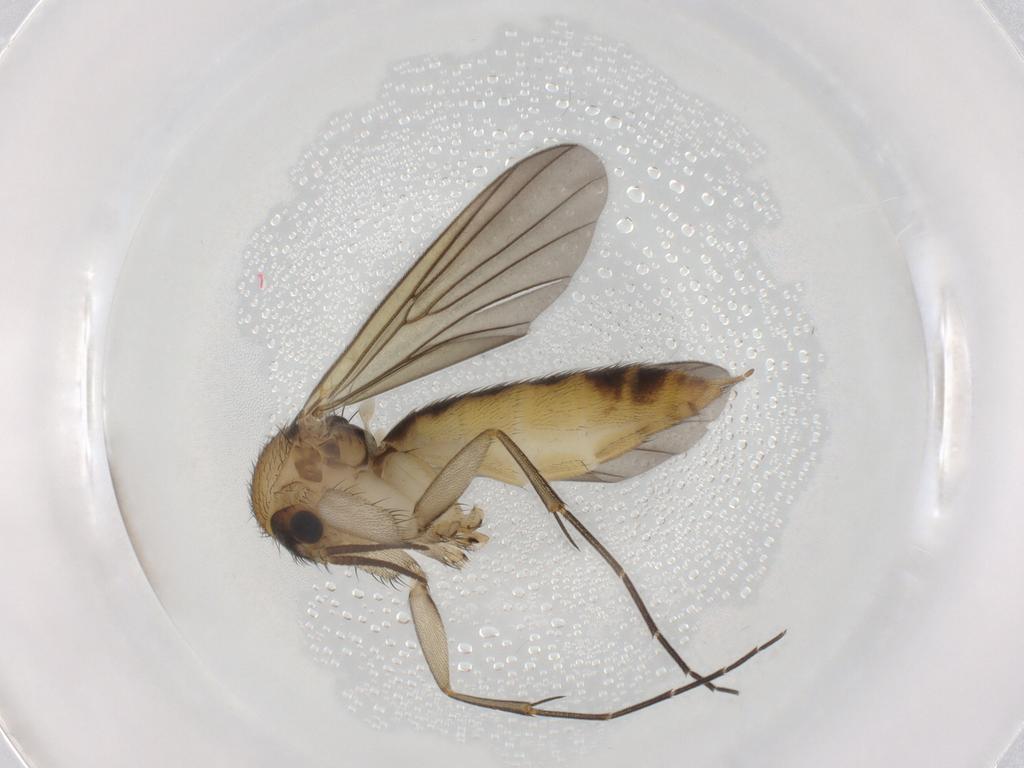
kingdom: Animalia
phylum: Arthropoda
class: Insecta
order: Diptera
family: Mycetophilidae
